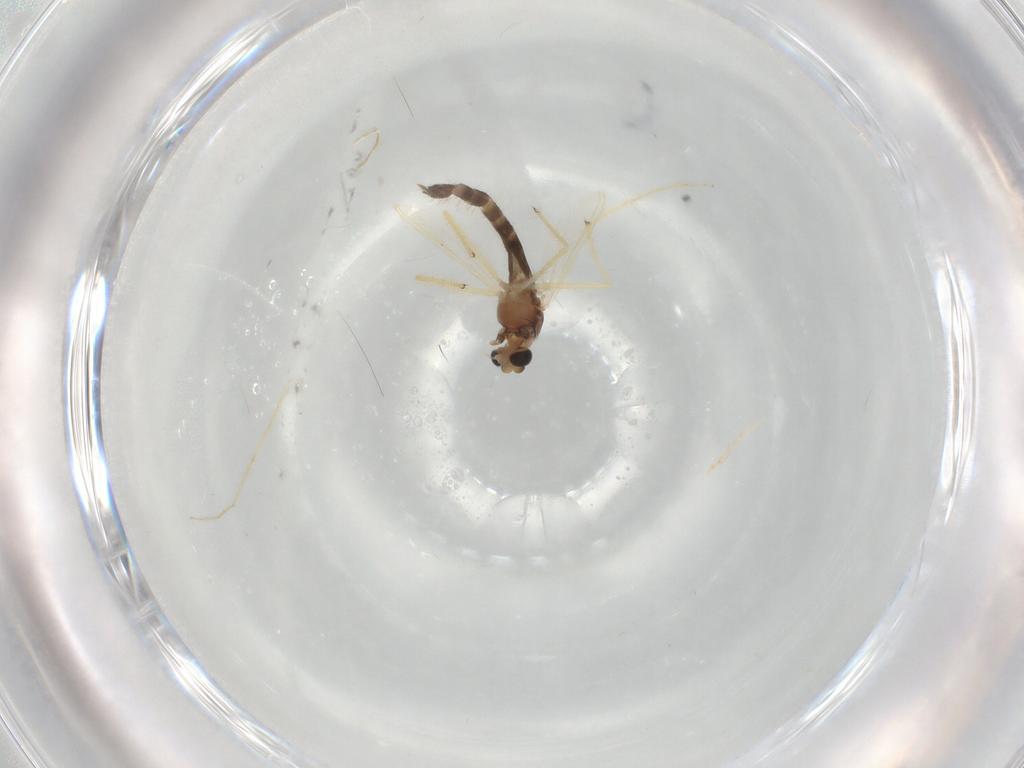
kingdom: Animalia
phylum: Arthropoda
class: Insecta
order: Diptera
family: Chironomidae
